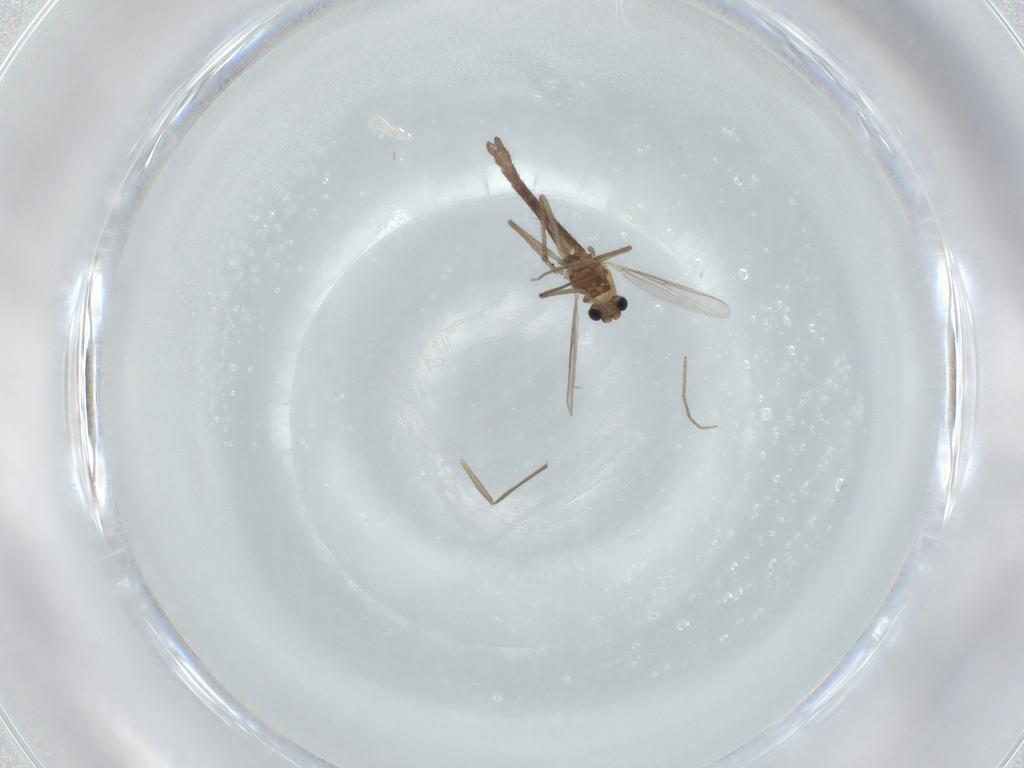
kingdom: Animalia
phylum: Arthropoda
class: Insecta
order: Diptera
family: Chironomidae
